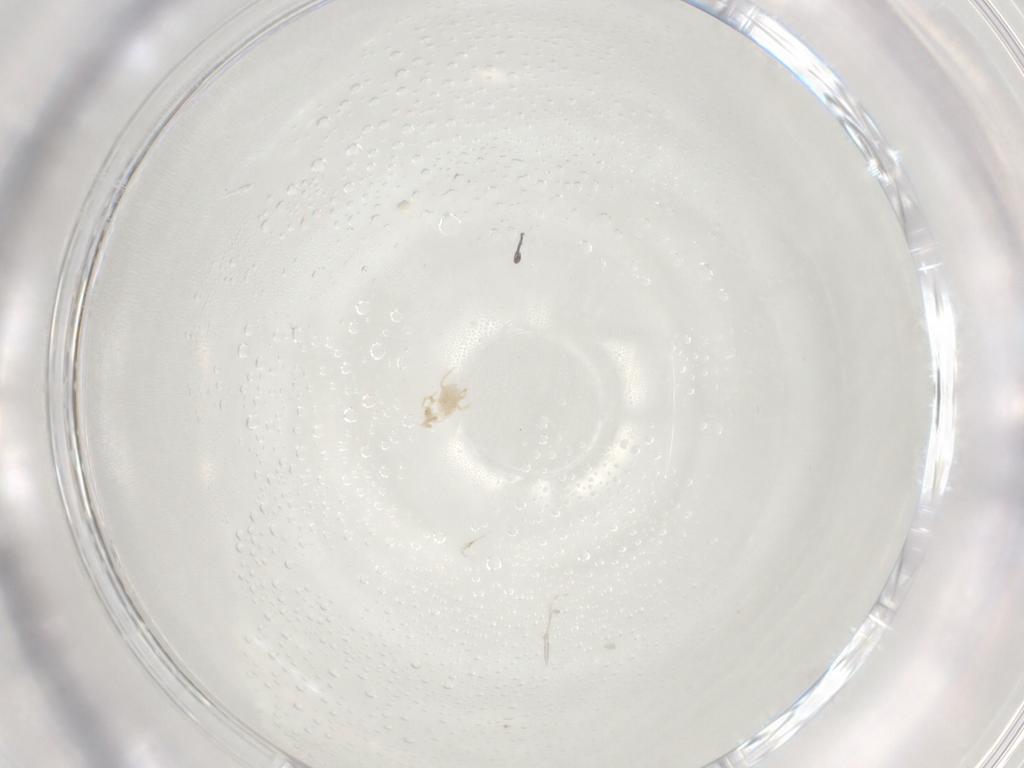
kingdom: Animalia
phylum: Arthropoda
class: Arachnida
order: Mesostigmata
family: Phytoseiidae
